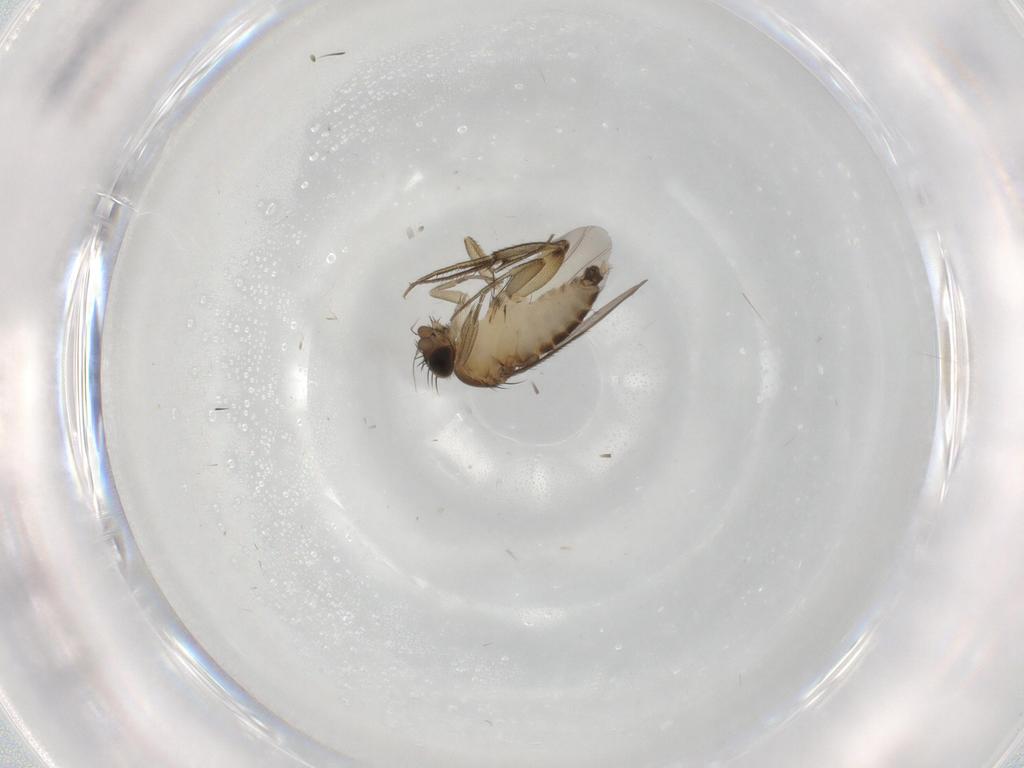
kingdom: Animalia
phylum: Arthropoda
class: Insecta
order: Diptera
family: Phoridae
